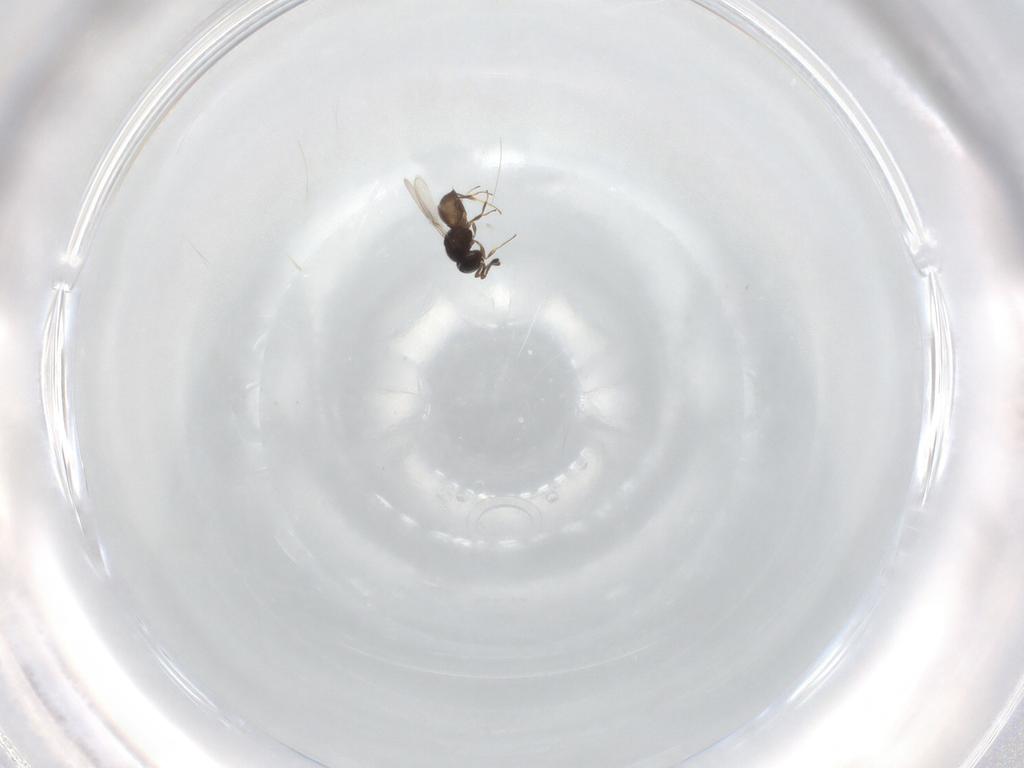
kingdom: Animalia
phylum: Arthropoda
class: Insecta
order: Hymenoptera
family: Scelionidae
